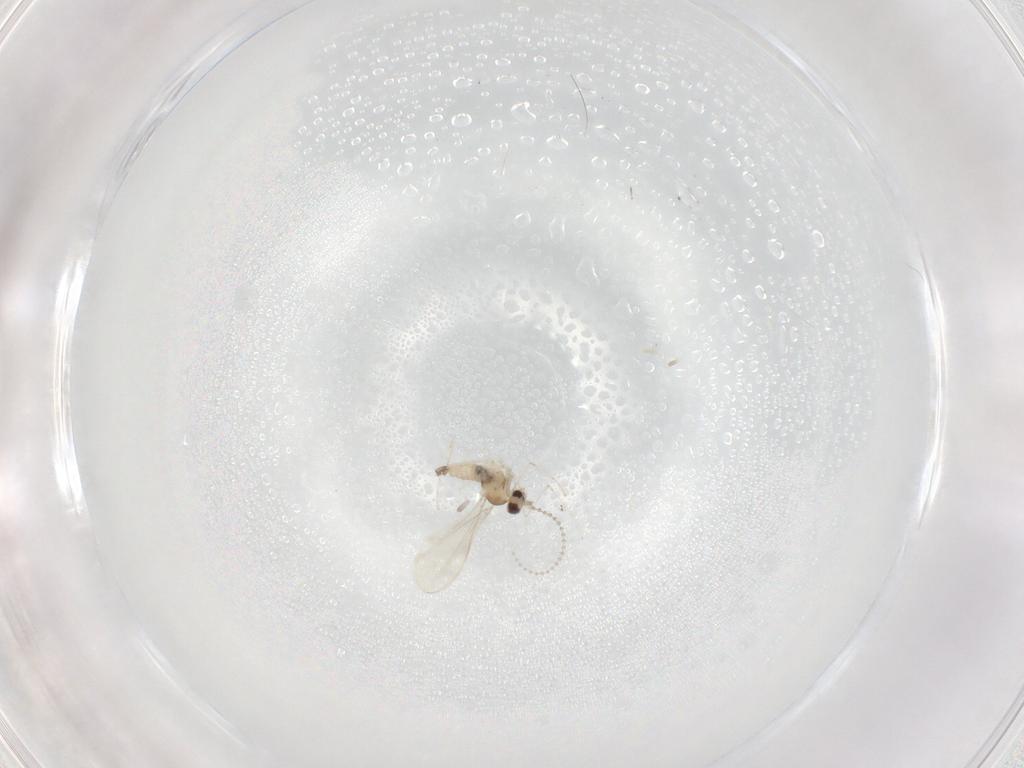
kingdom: Animalia
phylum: Arthropoda
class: Insecta
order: Diptera
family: Cecidomyiidae
